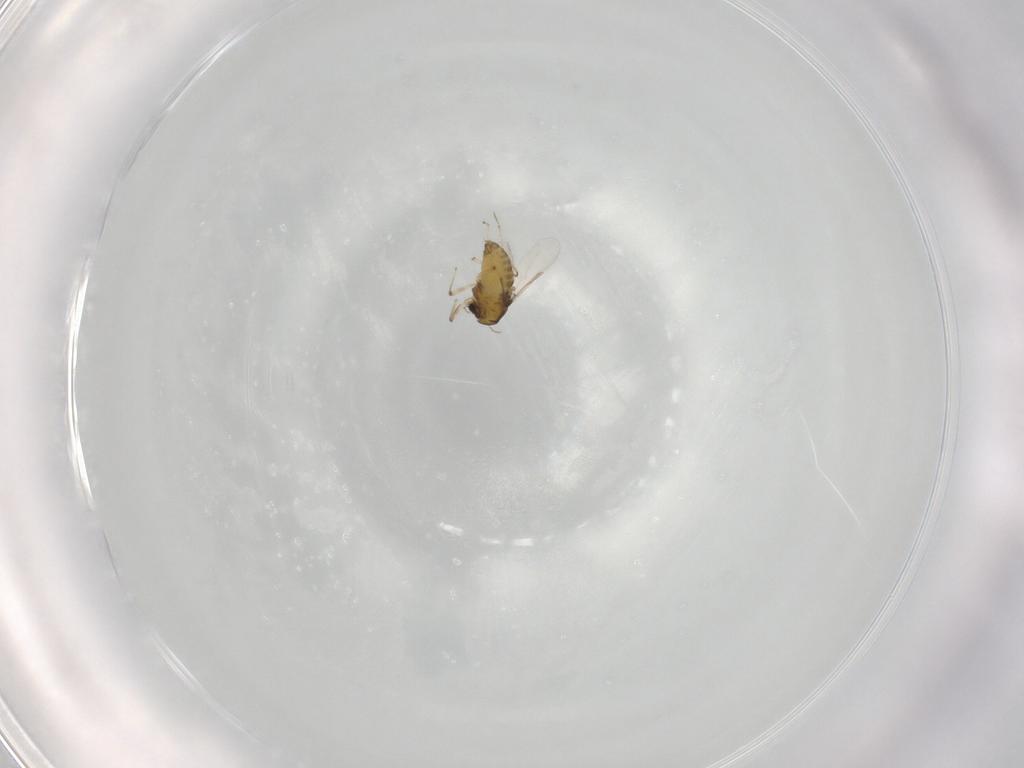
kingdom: Animalia
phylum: Arthropoda
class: Insecta
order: Diptera
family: Chironomidae
